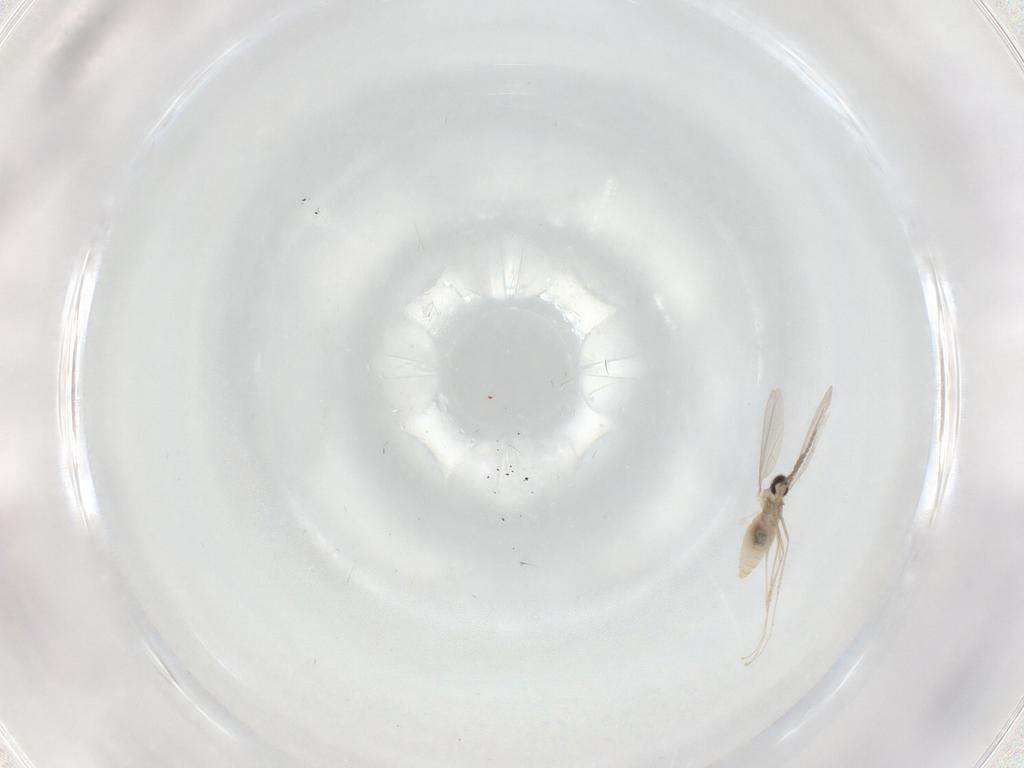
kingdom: Animalia
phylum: Arthropoda
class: Insecta
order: Diptera
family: Cecidomyiidae
